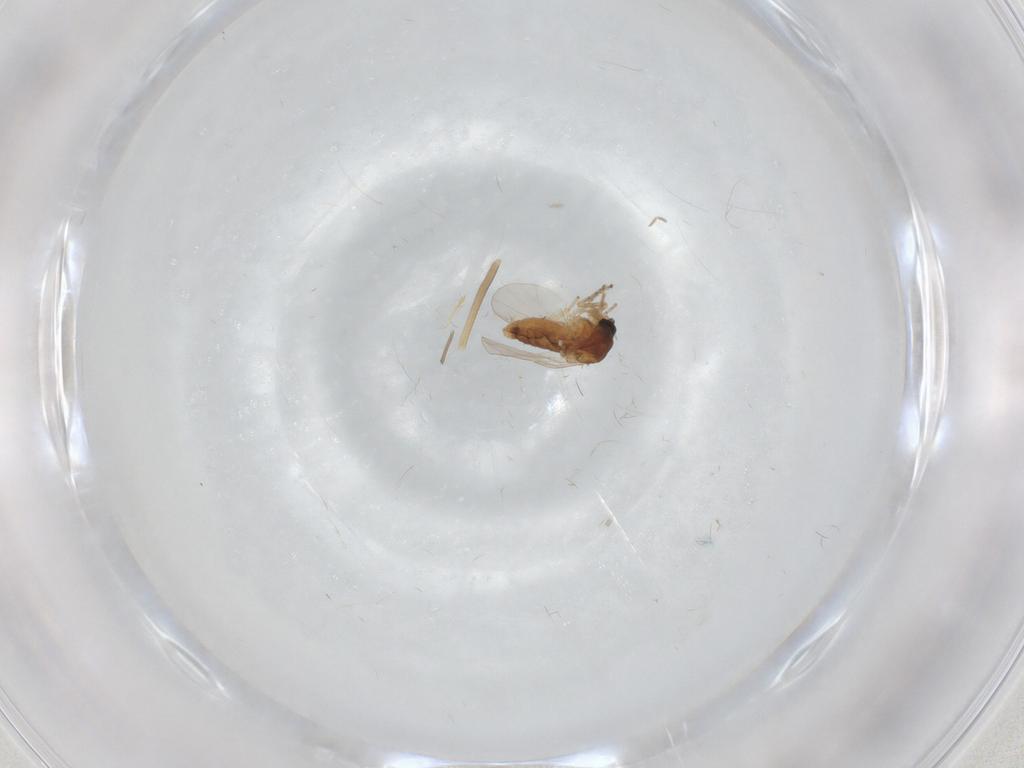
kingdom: Animalia
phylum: Arthropoda
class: Insecta
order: Diptera
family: Ceratopogonidae
